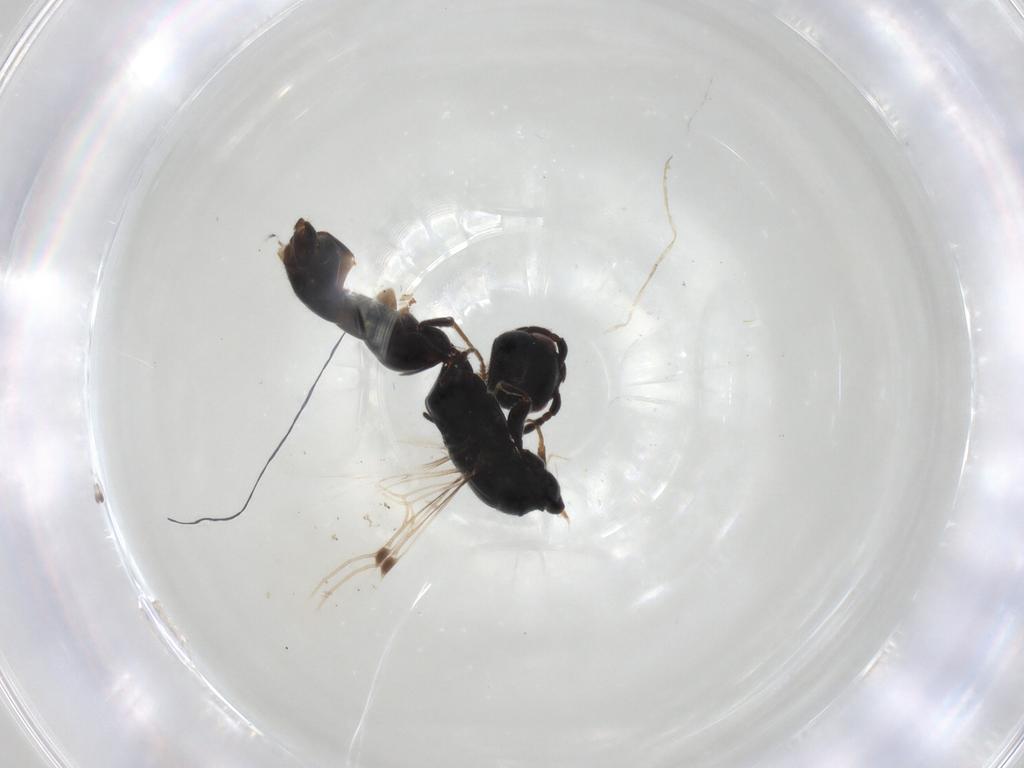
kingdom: Animalia
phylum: Arthropoda
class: Insecta
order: Hymenoptera
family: Bethylidae
